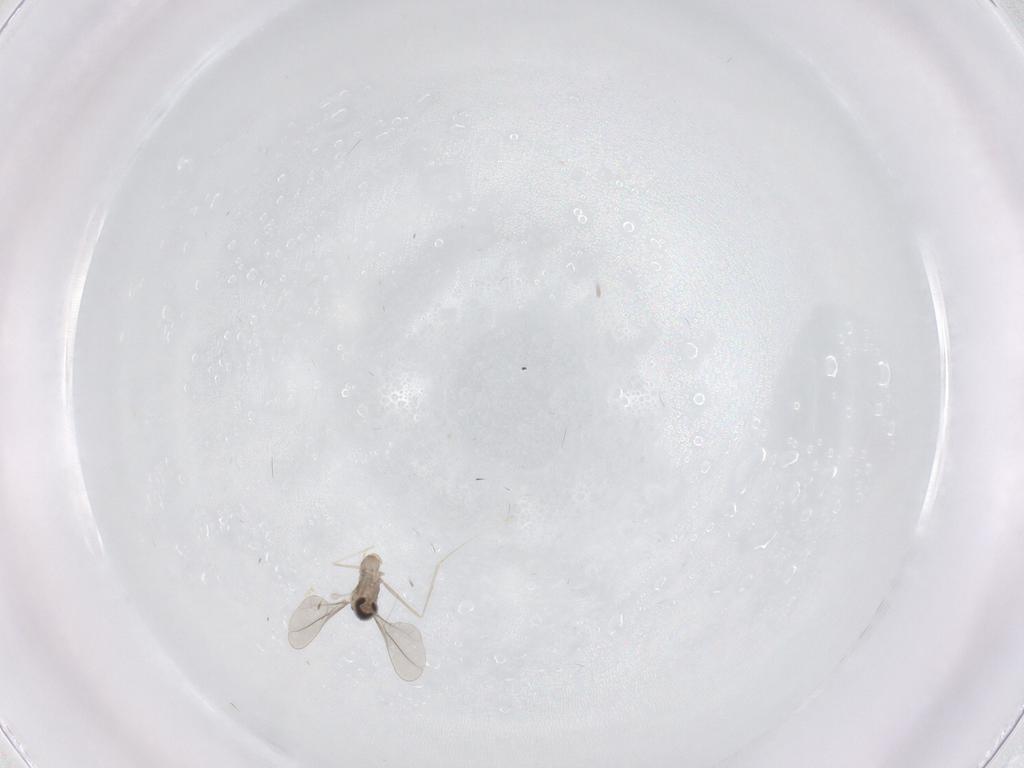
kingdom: Animalia
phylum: Arthropoda
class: Insecta
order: Diptera
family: Cecidomyiidae
